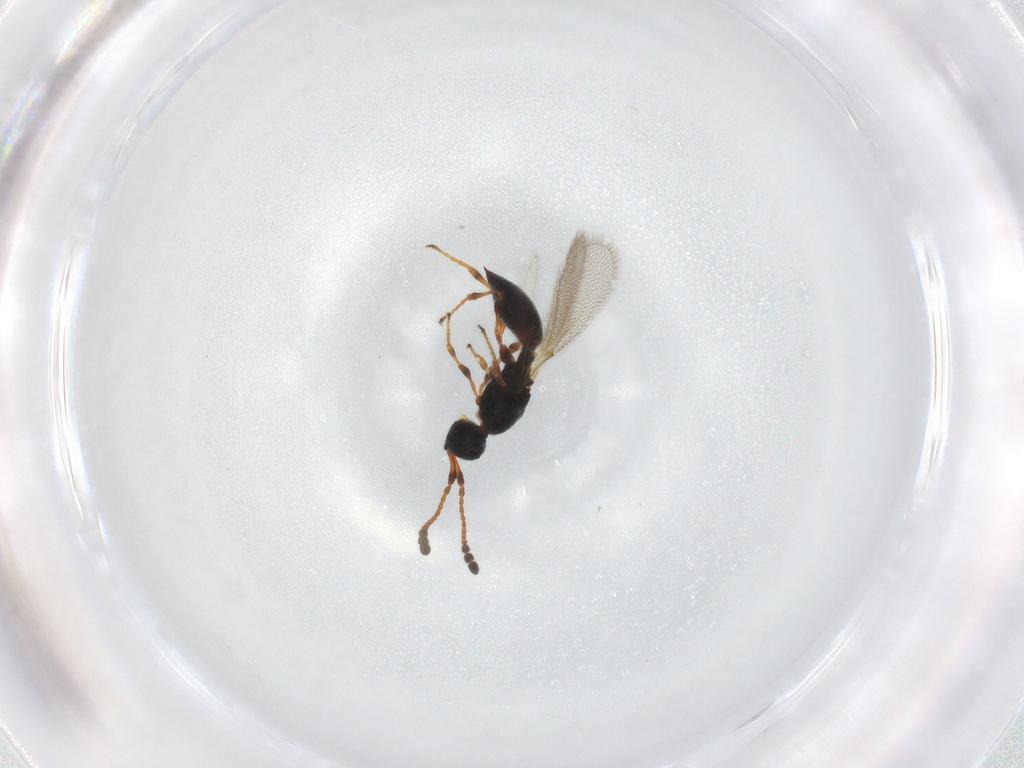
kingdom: Animalia
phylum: Arthropoda
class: Insecta
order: Hymenoptera
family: Diapriidae
